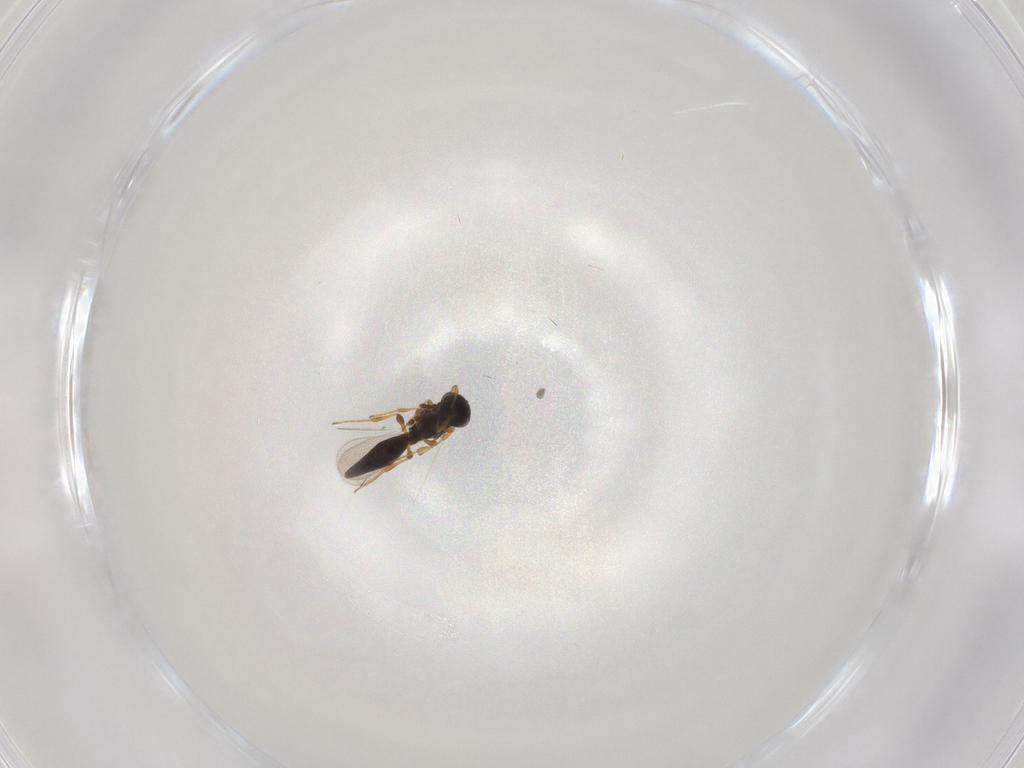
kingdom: Animalia
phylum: Arthropoda
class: Insecta
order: Hymenoptera
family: Platygastridae
